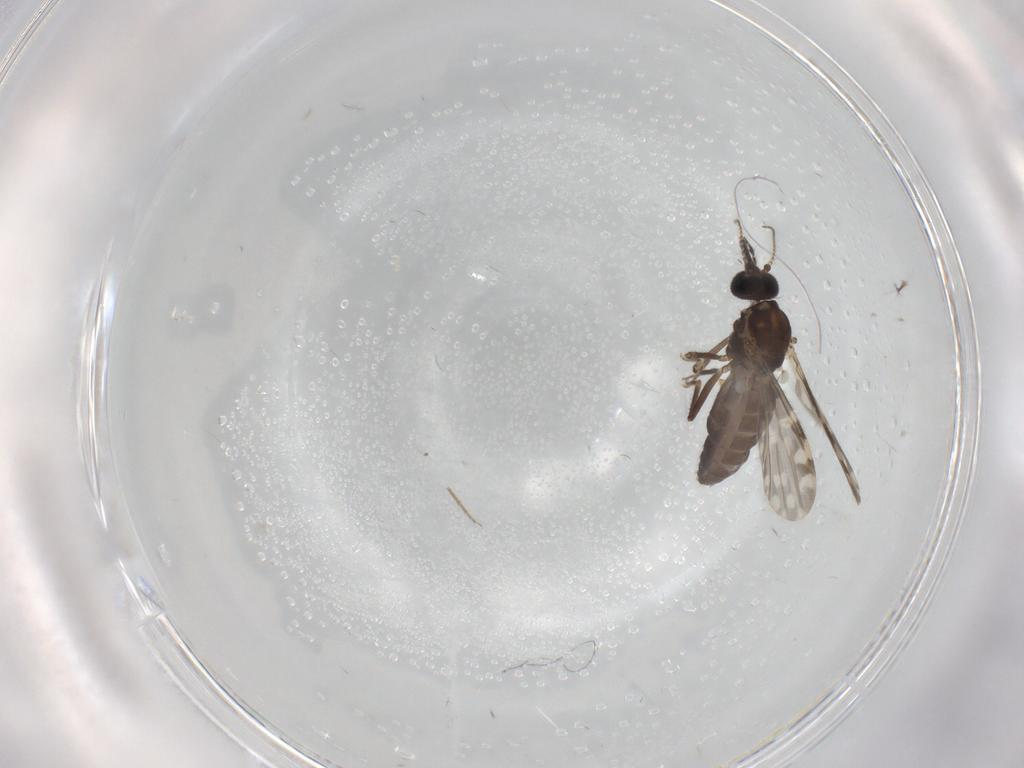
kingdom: Animalia
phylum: Arthropoda
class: Insecta
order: Diptera
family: Ceratopogonidae
